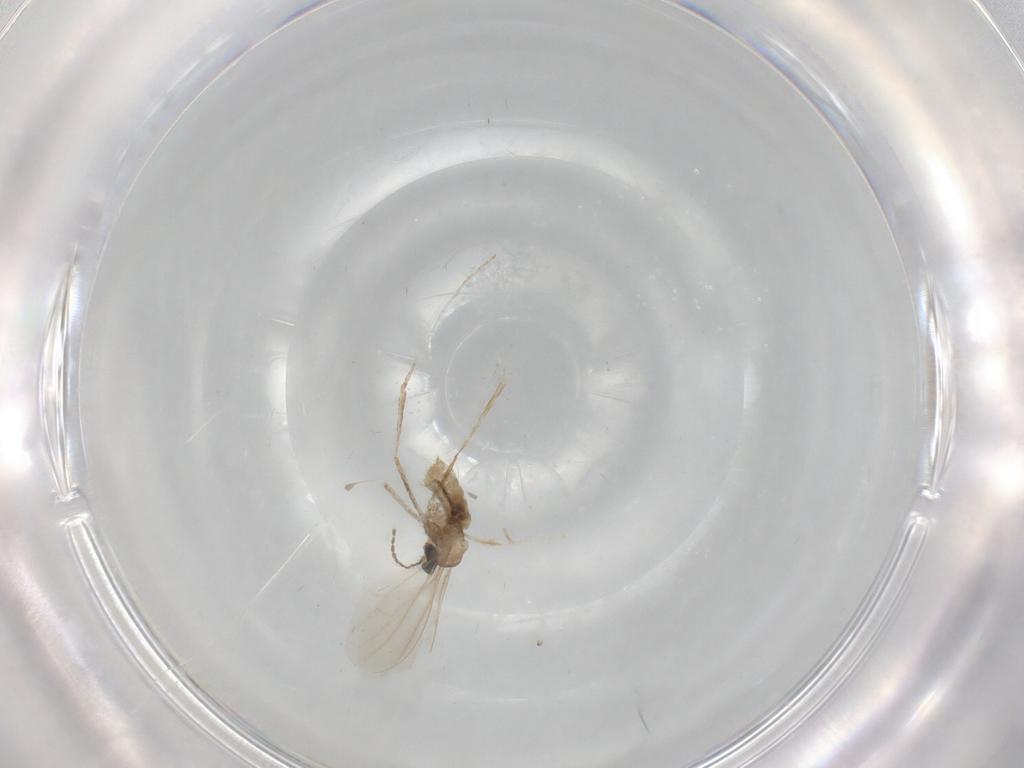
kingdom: Animalia
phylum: Arthropoda
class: Insecta
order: Diptera
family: Cecidomyiidae
